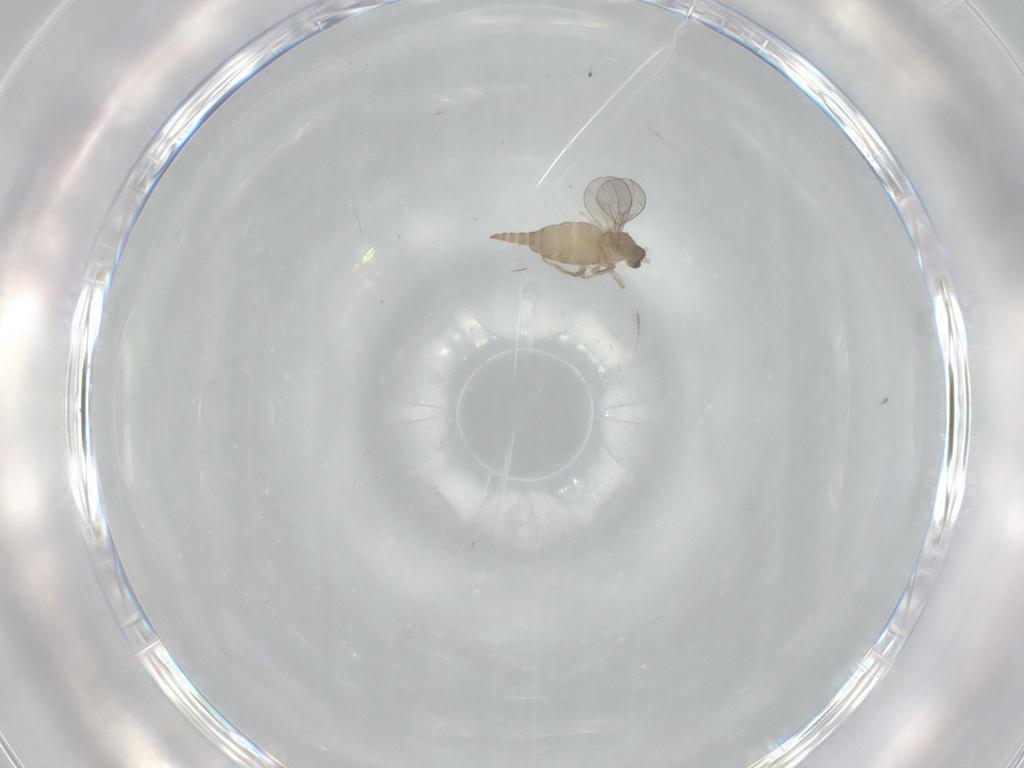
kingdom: Animalia
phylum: Arthropoda
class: Insecta
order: Diptera
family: Cecidomyiidae
